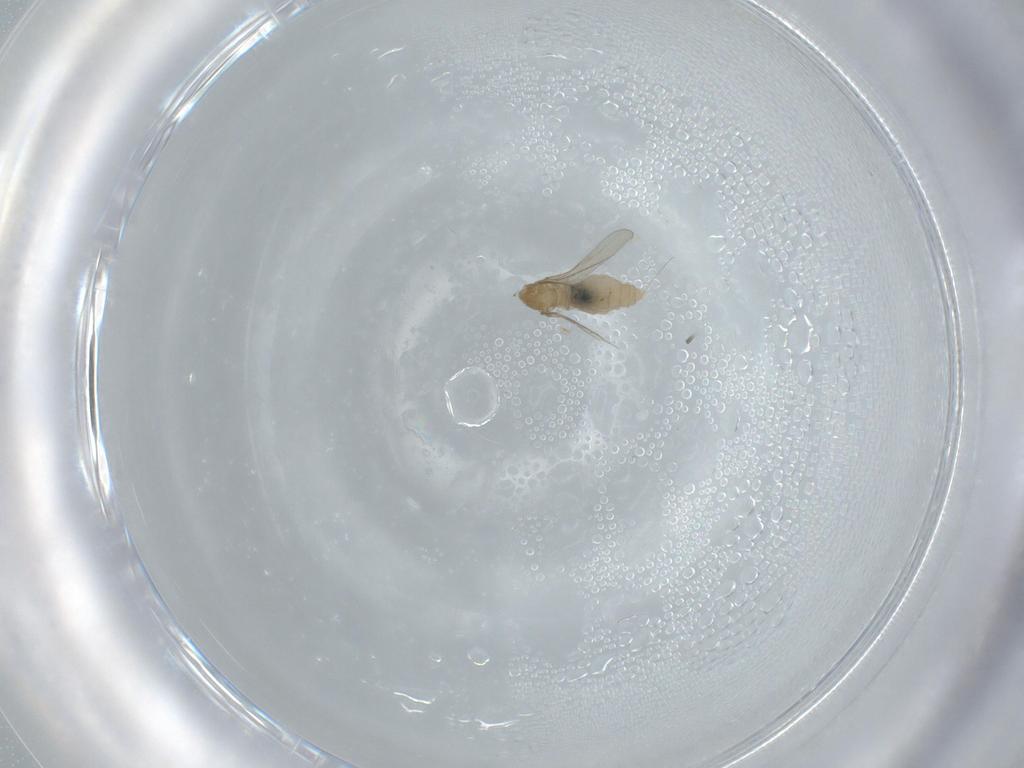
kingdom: Animalia
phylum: Arthropoda
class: Insecta
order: Diptera
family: Cecidomyiidae
